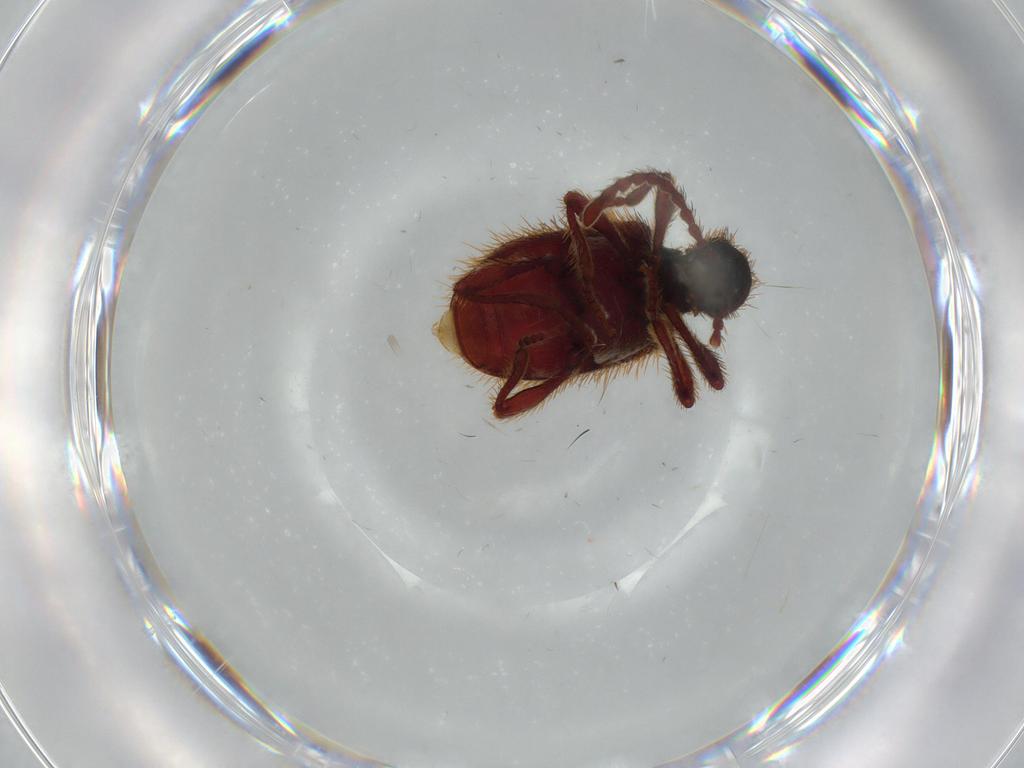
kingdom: Animalia
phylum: Arthropoda
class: Insecta
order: Coleoptera
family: Ptinidae
